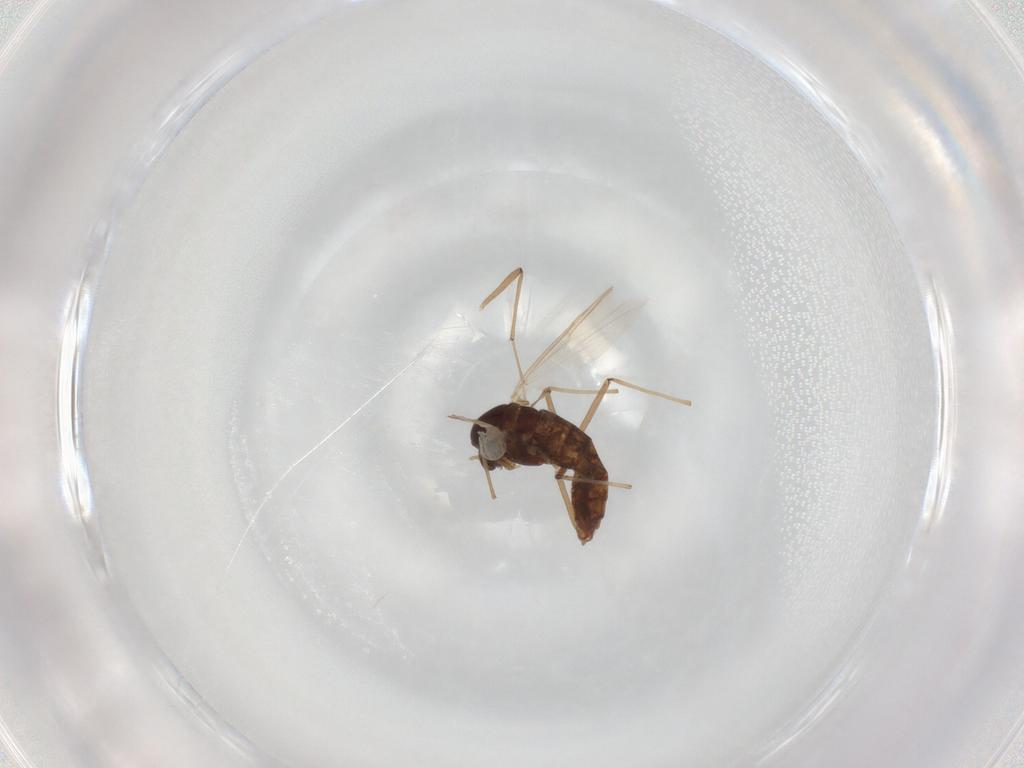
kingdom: Animalia
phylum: Arthropoda
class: Insecta
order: Diptera
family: Chironomidae
